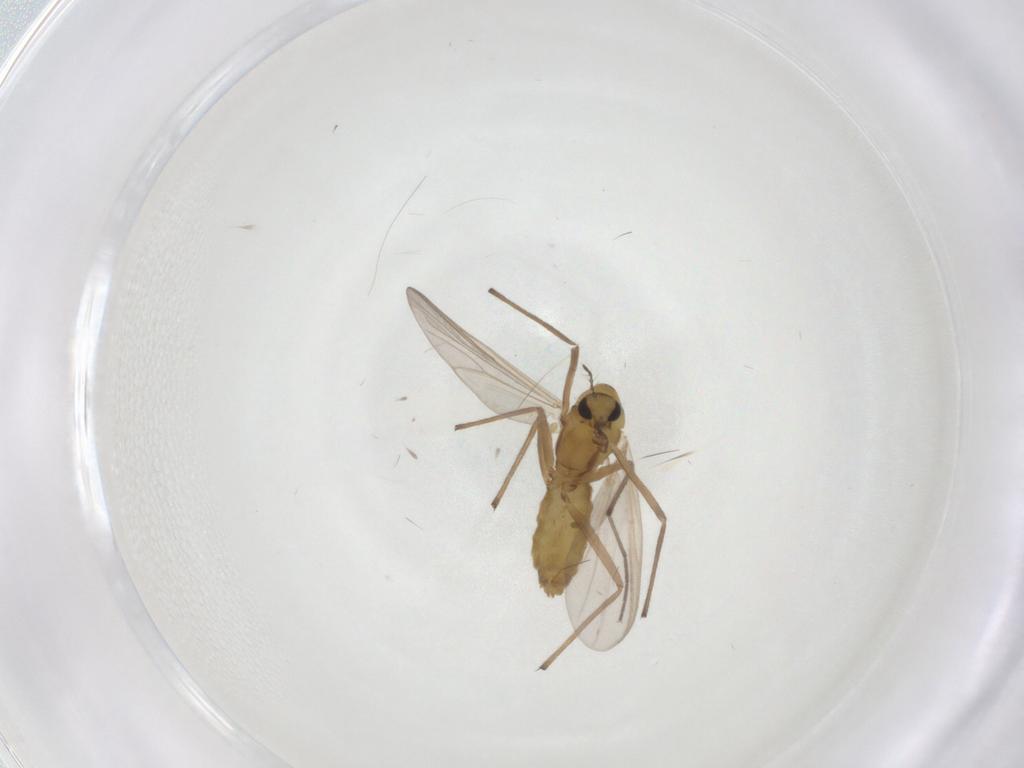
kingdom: Animalia
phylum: Arthropoda
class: Insecta
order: Diptera
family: Chironomidae
